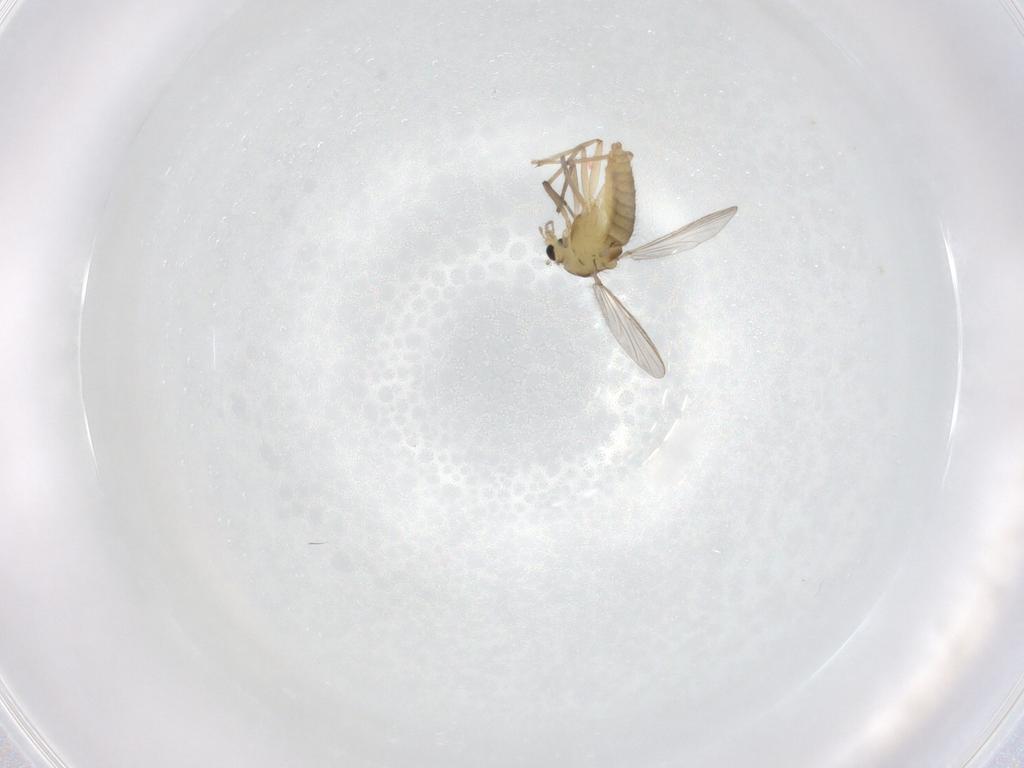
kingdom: Animalia
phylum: Arthropoda
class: Insecta
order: Diptera
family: Chironomidae
